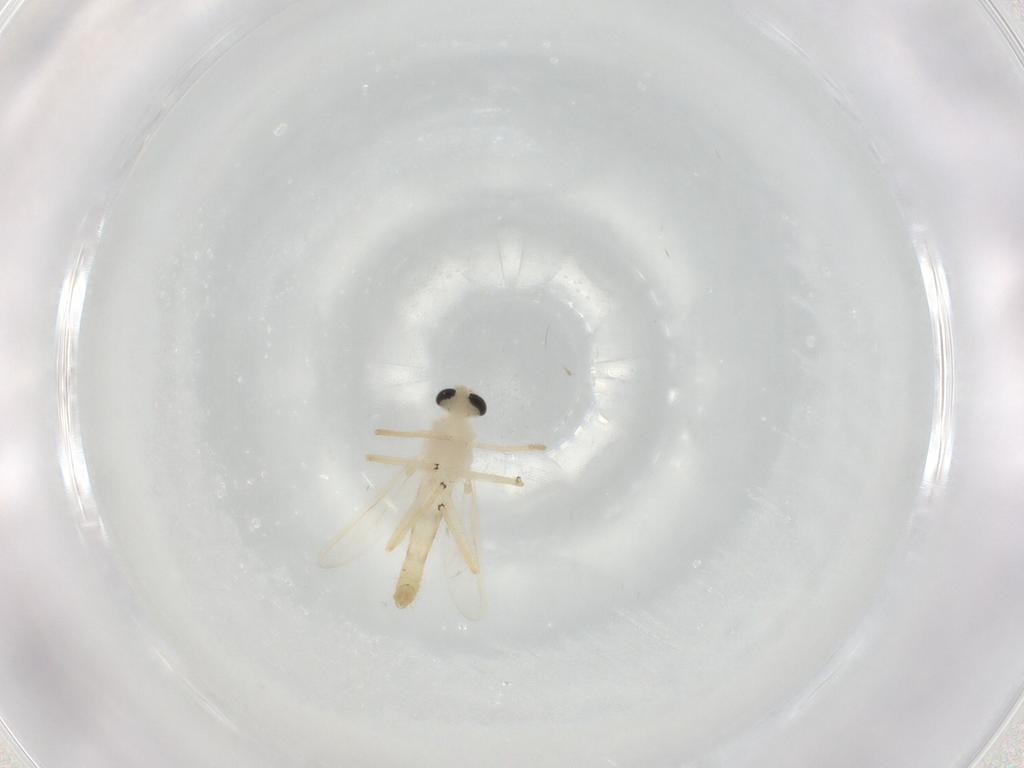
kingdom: Animalia
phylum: Arthropoda
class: Insecta
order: Diptera
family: Chironomidae
